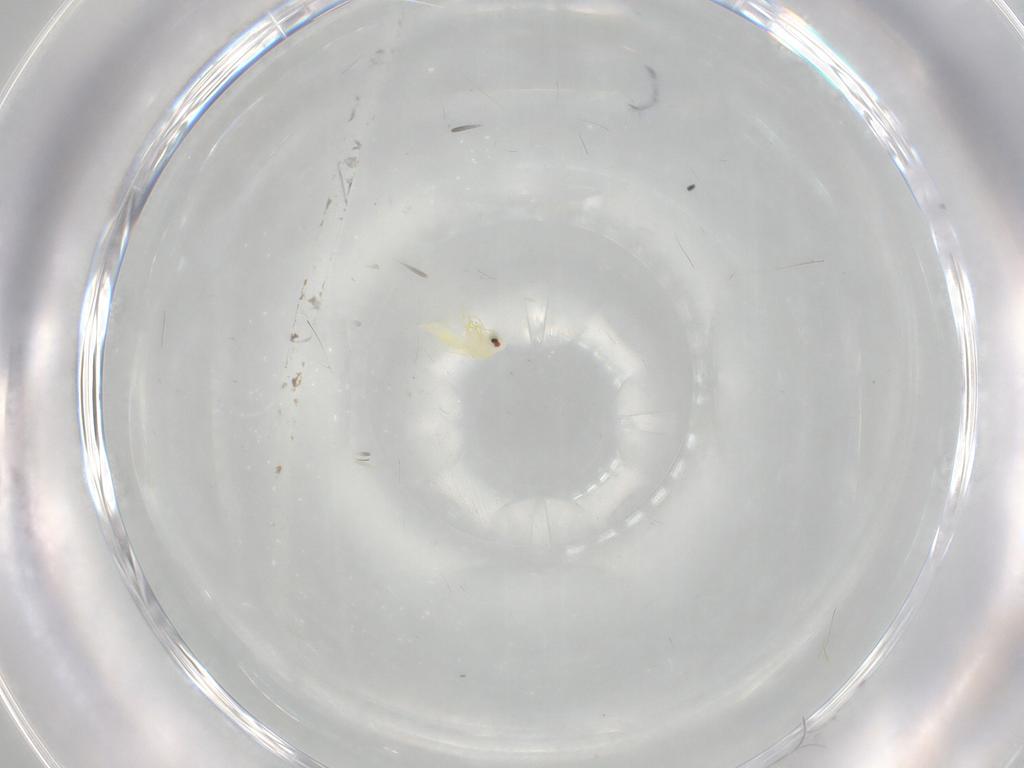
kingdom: Animalia
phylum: Arthropoda
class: Insecta
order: Hemiptera
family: Aleyrodidae
